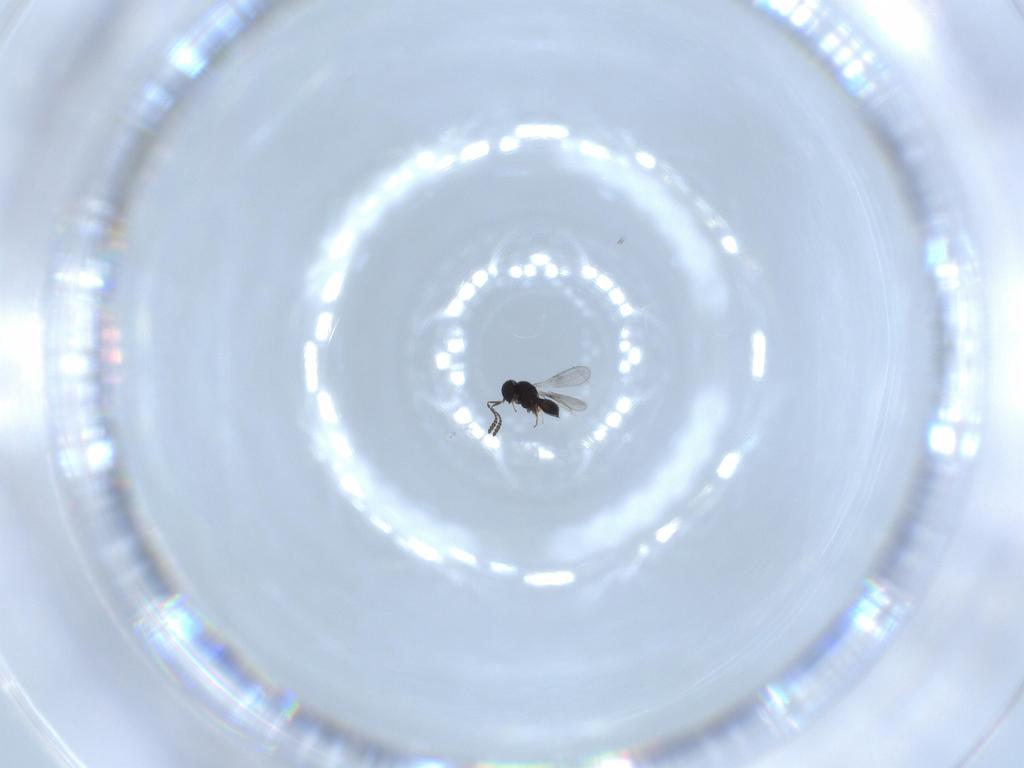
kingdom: Animalia
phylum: Arthropoda
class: Insecta
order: Hymenoptera
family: Scelionidae
